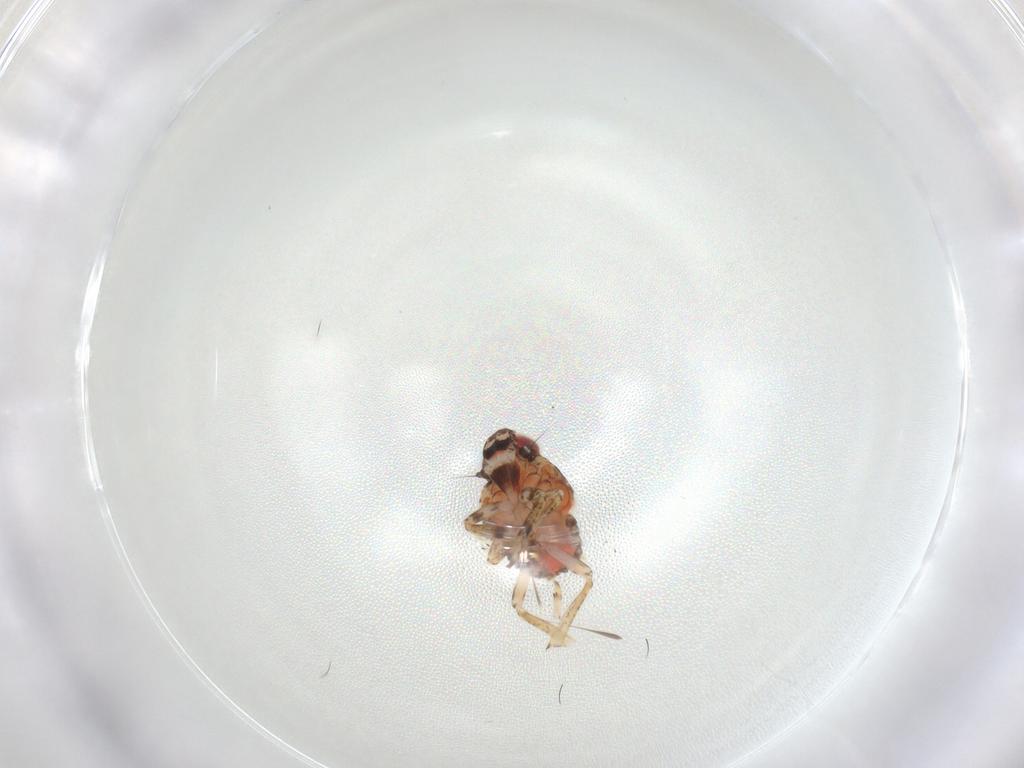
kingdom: Animalia
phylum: Arthropoda
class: Insecta
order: Hemiptera
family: Issidae
